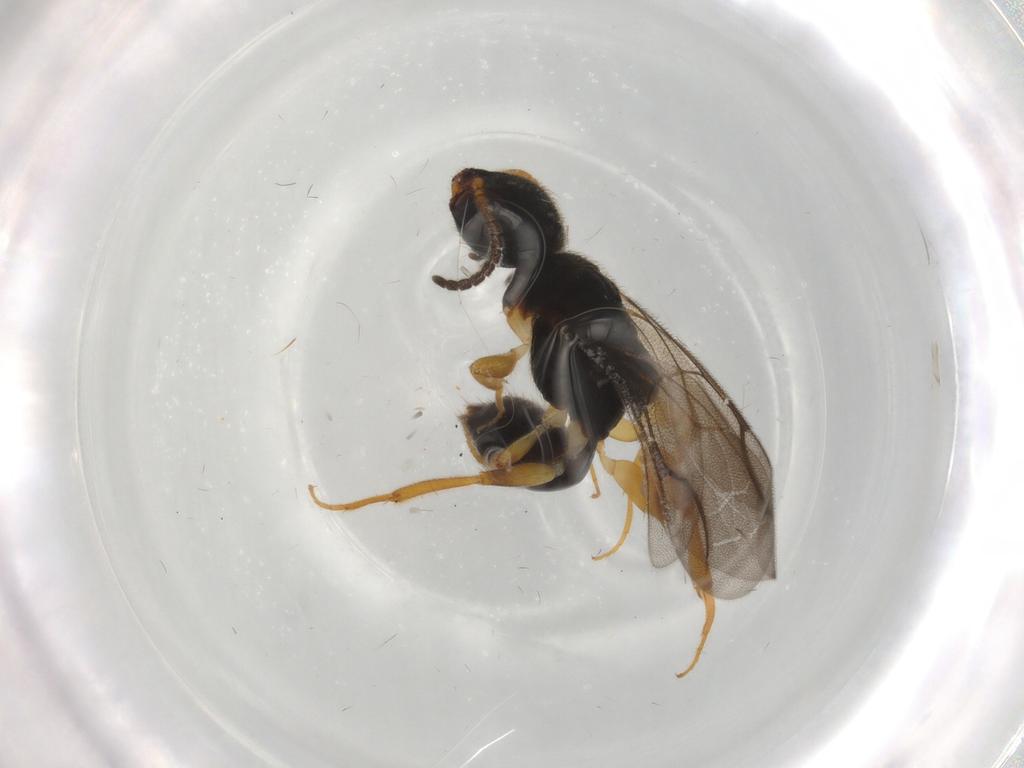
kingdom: Animalia
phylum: Arthropoda
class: Insecta
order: Hymenoptera
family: Bethylidae
